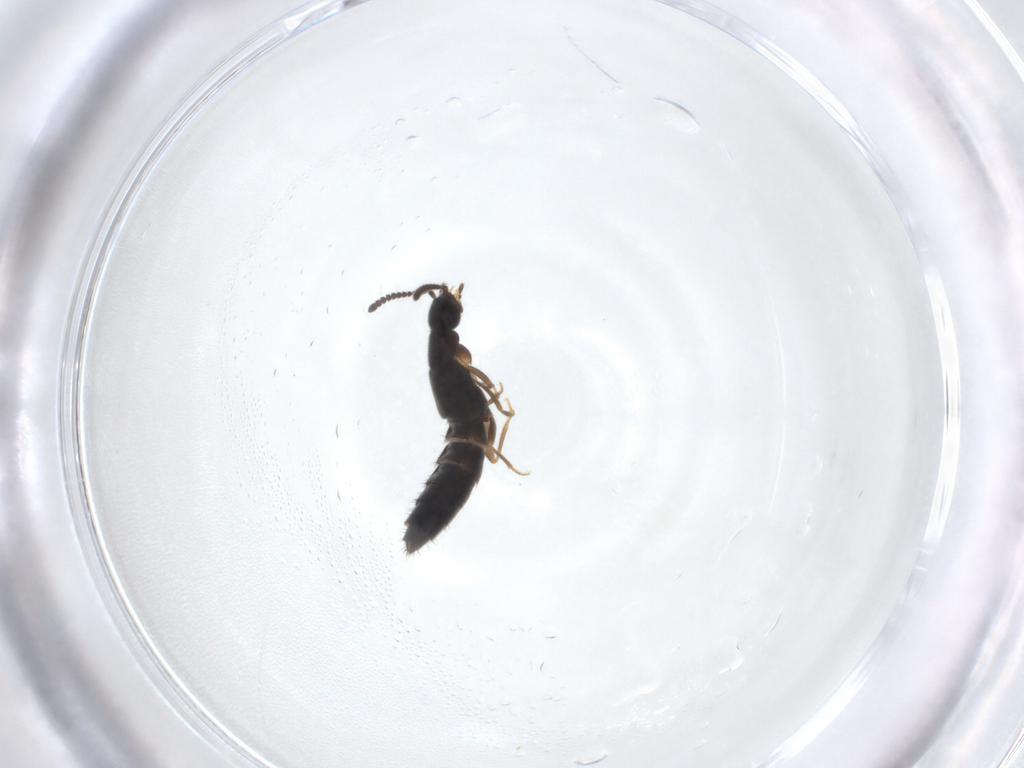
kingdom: Animalia
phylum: Arthropoda
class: Insecta
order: Coleoptera
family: Staphylinidae
